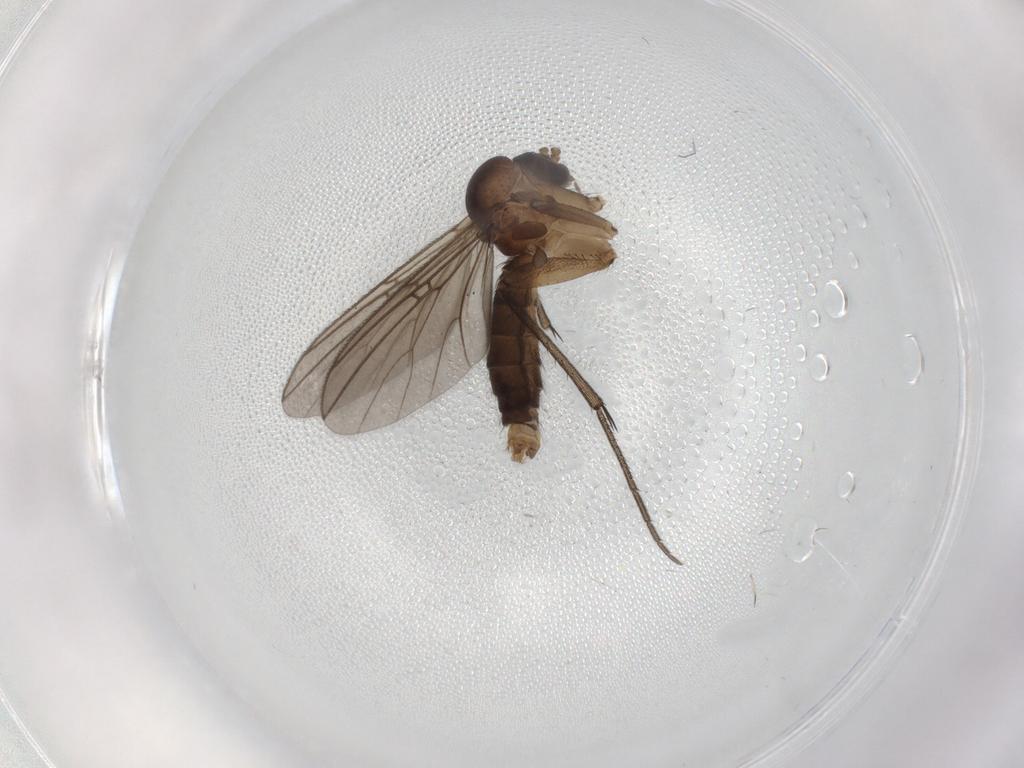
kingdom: Animalia
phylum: Arthropoda
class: Insecta
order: Diptera
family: Mycetophilidae
